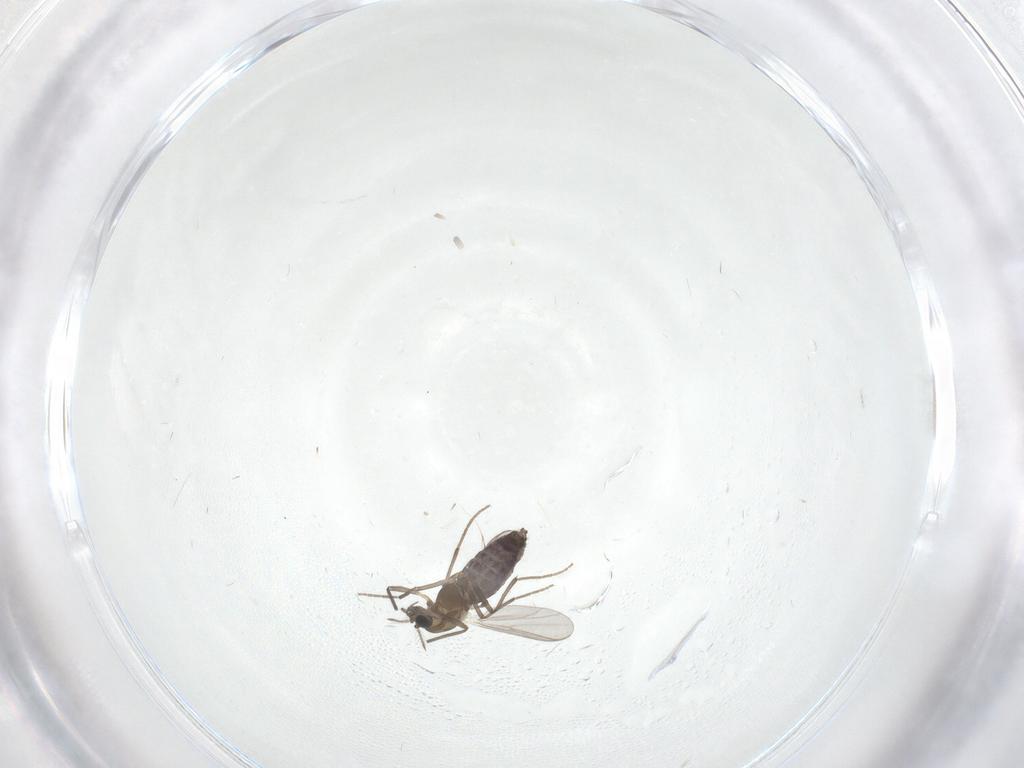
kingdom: Animalia
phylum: Arthropoda
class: Insecta
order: Diptera
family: Chironomidae
